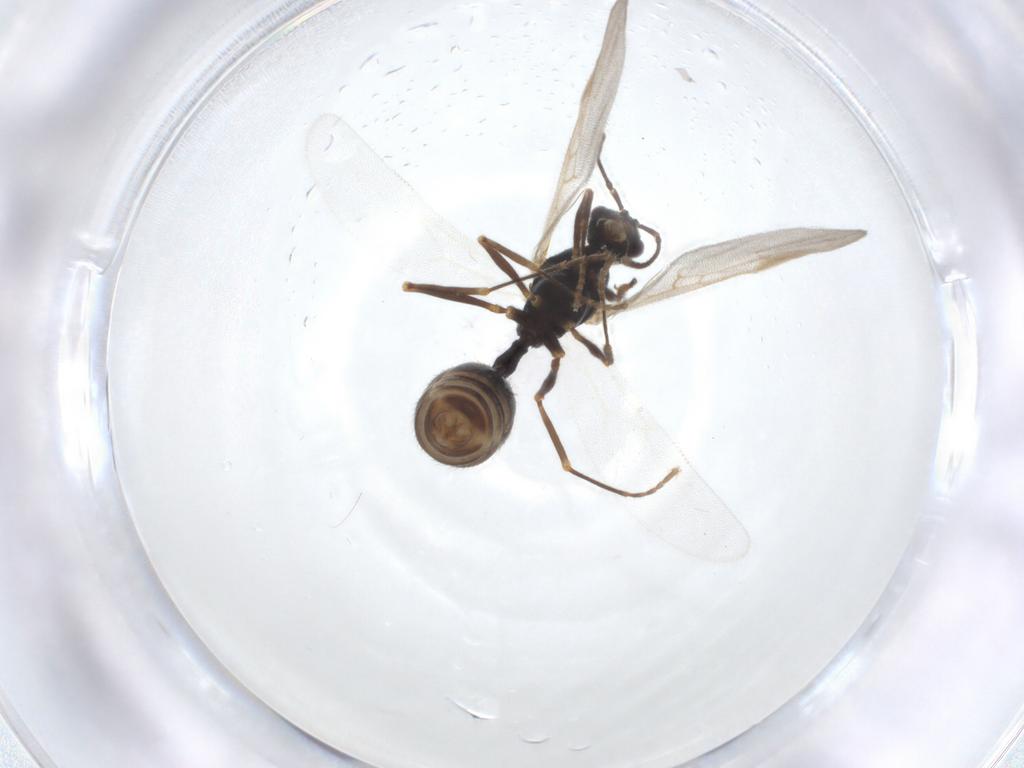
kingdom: Animalia
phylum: Arthropoda
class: Insecta
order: Hymenoptera
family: Formicidae
